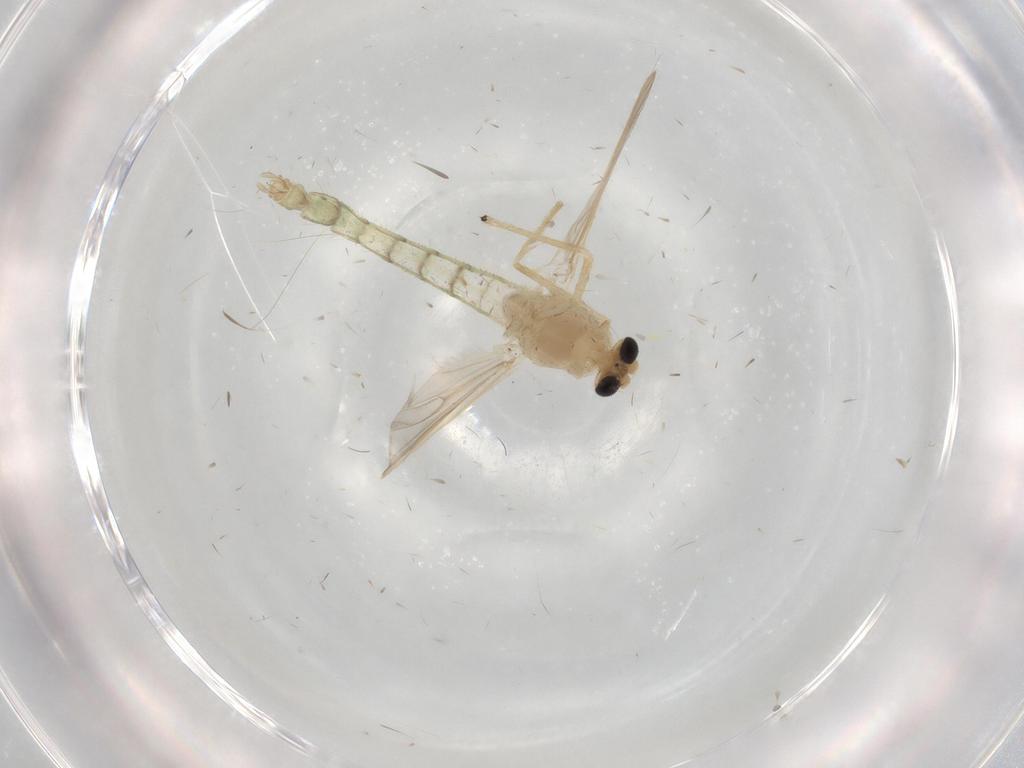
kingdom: Animalia
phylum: Arthropoda
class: Insecta
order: Diptera
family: Chironomidae
